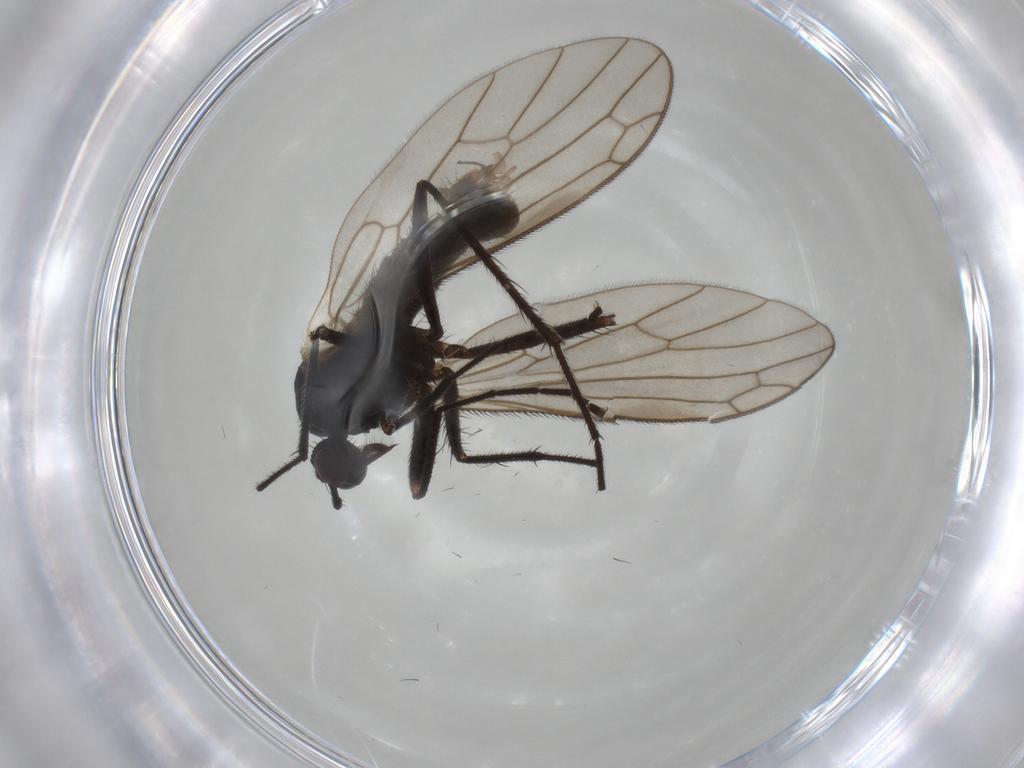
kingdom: Animalia
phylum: Arthropoda
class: Insecta
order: Diptera
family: Empididae
